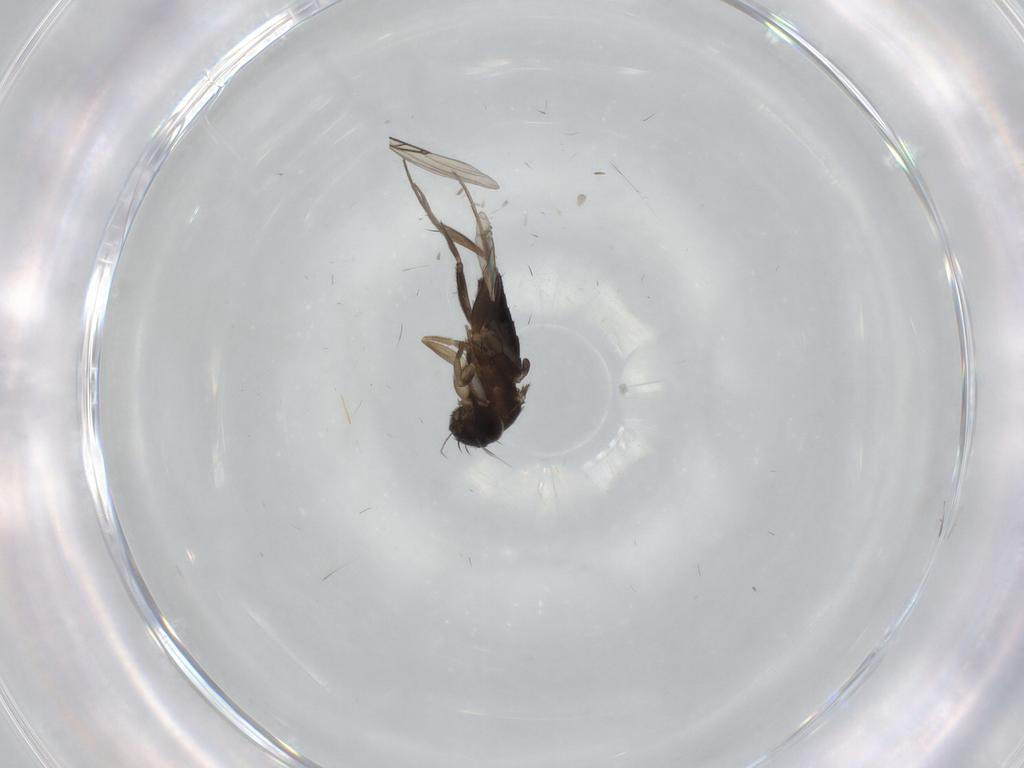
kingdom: Animalia
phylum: Arthropoda
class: Insecta
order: Diptera
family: Phoridae
